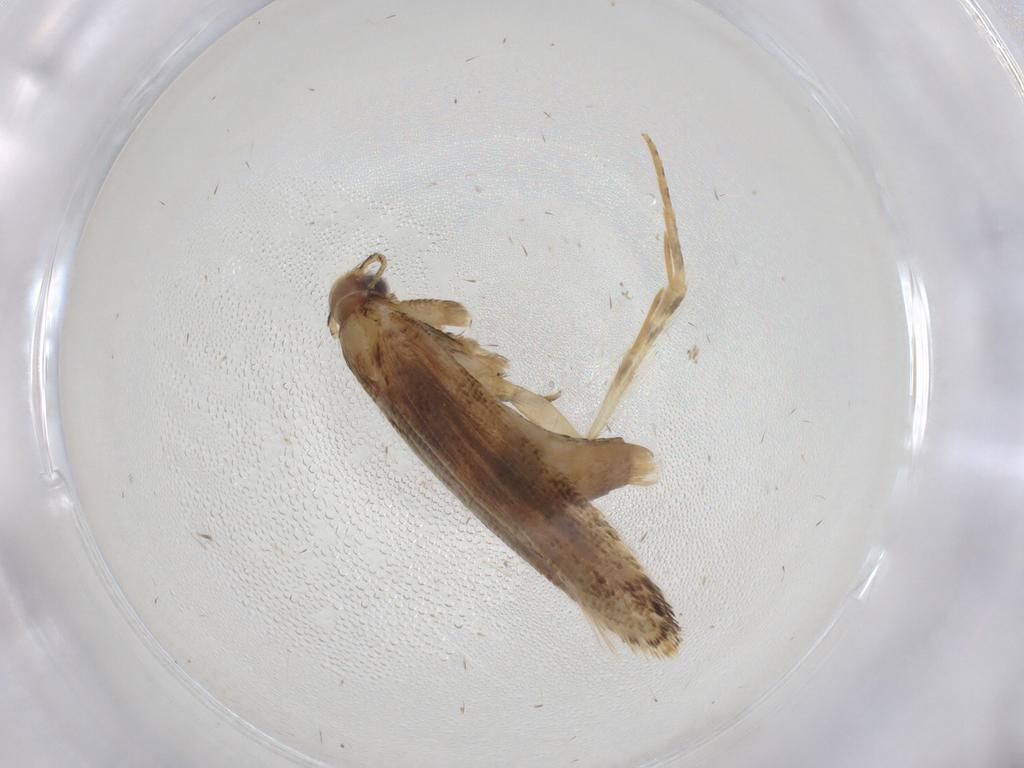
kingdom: Animalia
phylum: Arthropoda
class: Insecta
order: Lepidoptera
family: Gelechiidae
